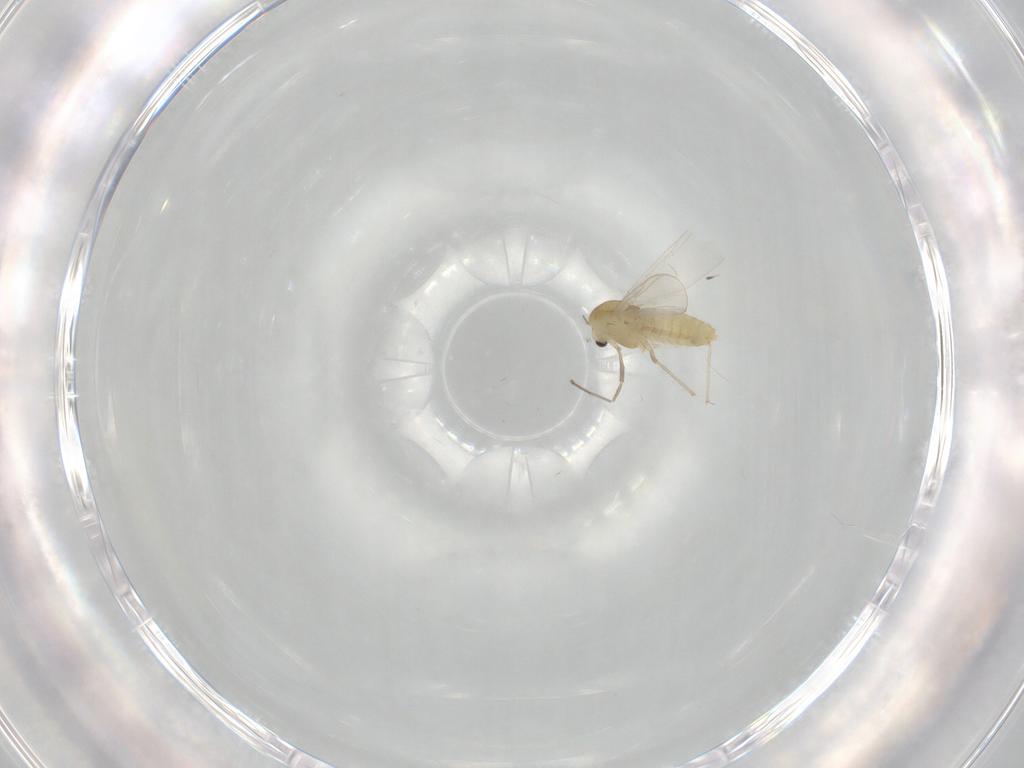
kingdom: Animalia
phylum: Arthropoda
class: Insecta
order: Diptera
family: Chironomidae
